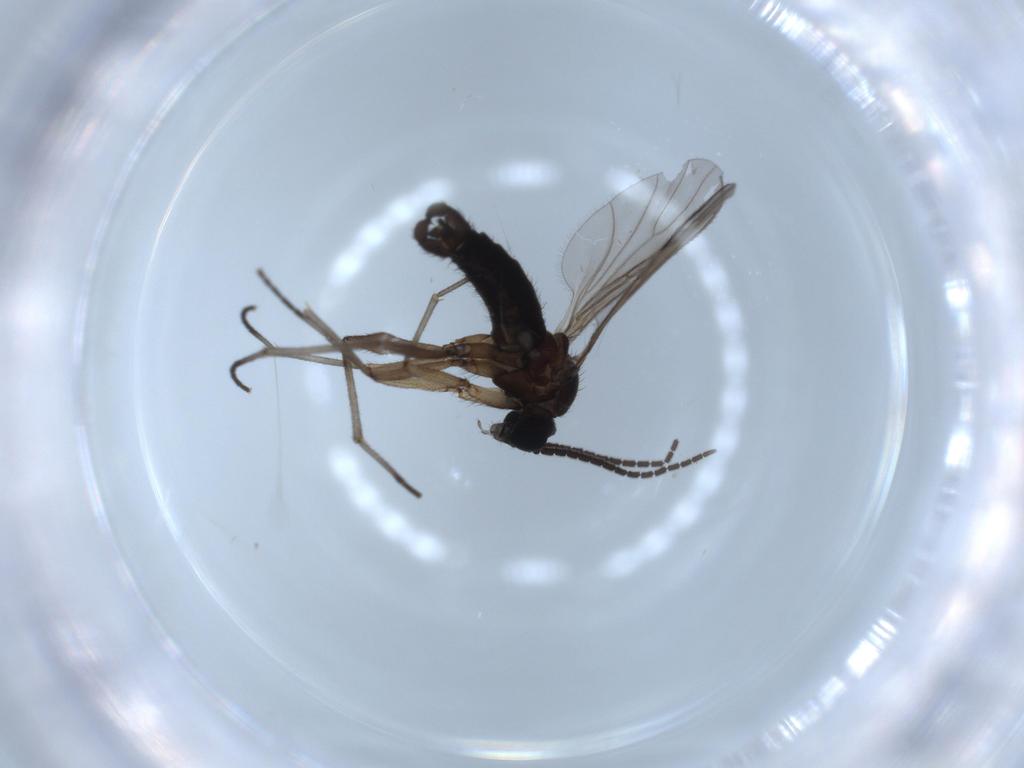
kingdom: Animalia
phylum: Arthropoda
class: Insecta
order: Diptera
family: Sciaridae
